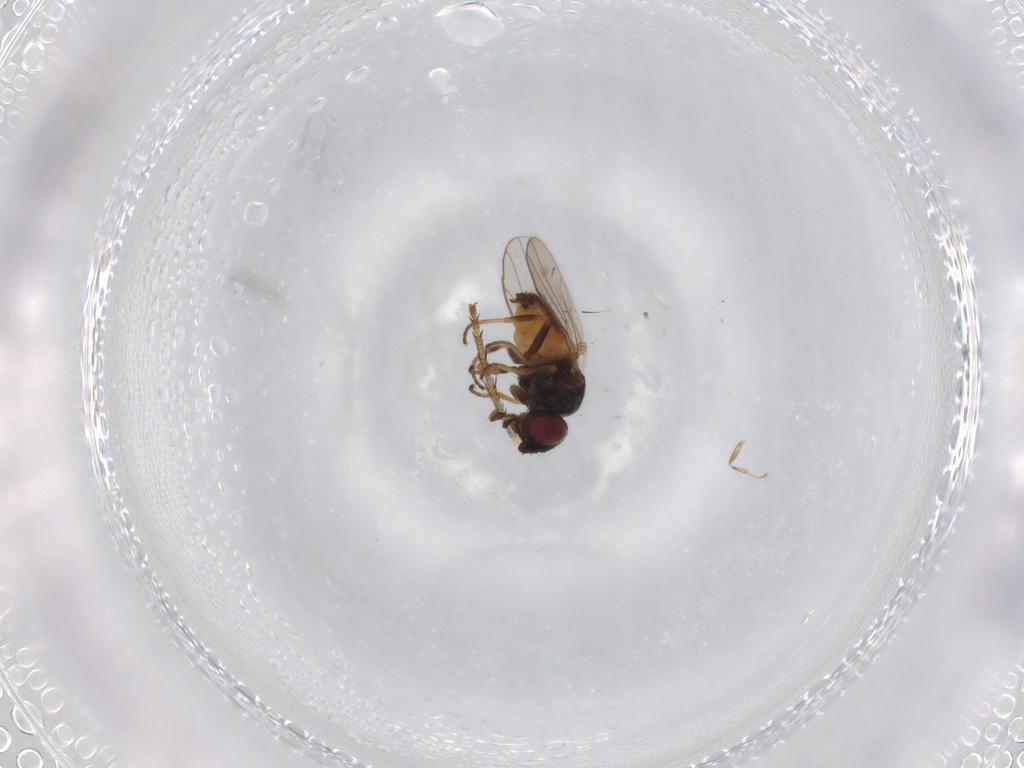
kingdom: Animalia
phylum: Arthropoda
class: Insecta
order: Diptera
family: Chloropidae
